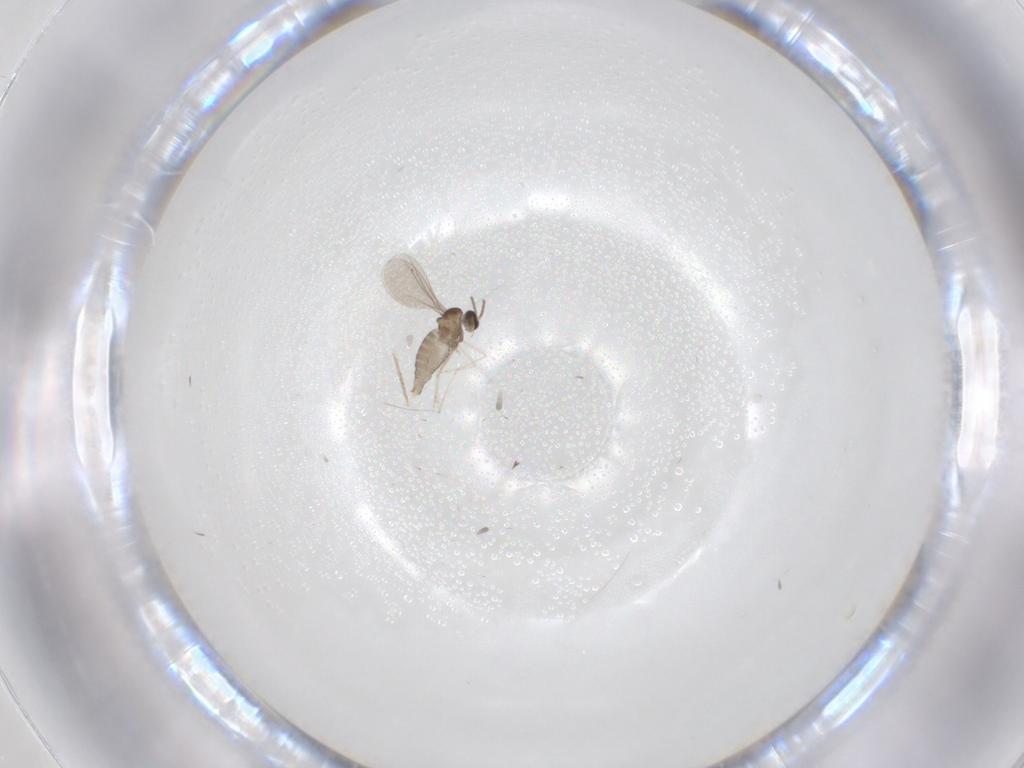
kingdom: Animalia
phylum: Arthropoda
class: Insecta
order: Diptera
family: Cecidomyiidae
